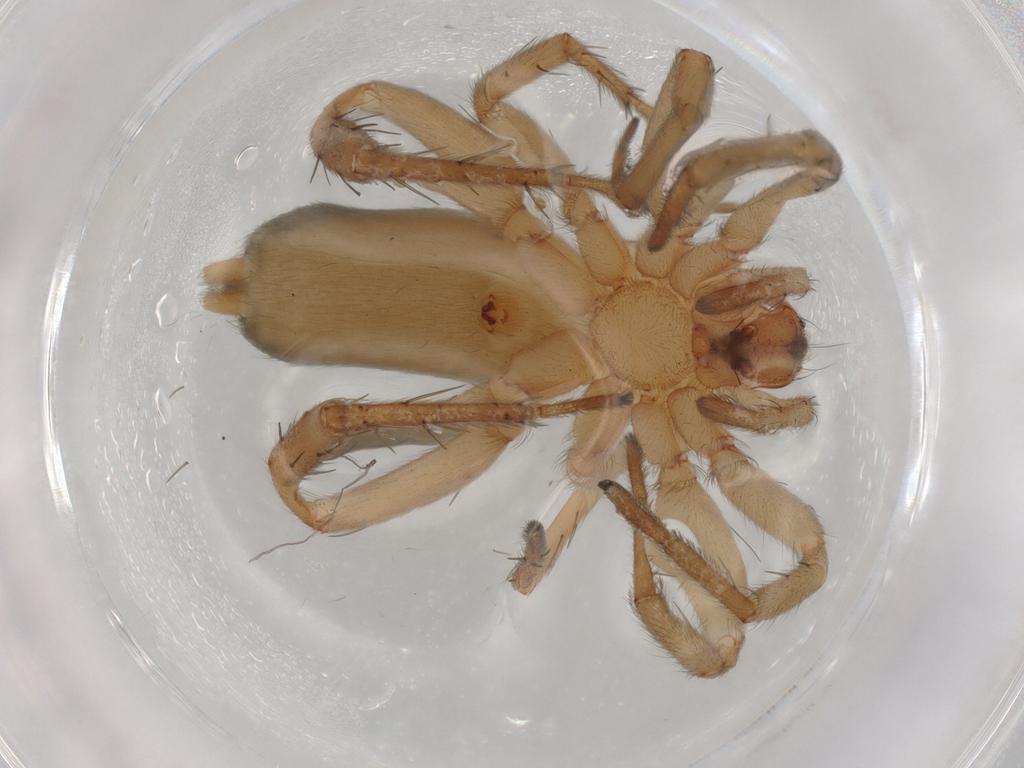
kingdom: Animalia
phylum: Arthropoda
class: Arachnida
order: Araneae
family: Anyphaenidae
